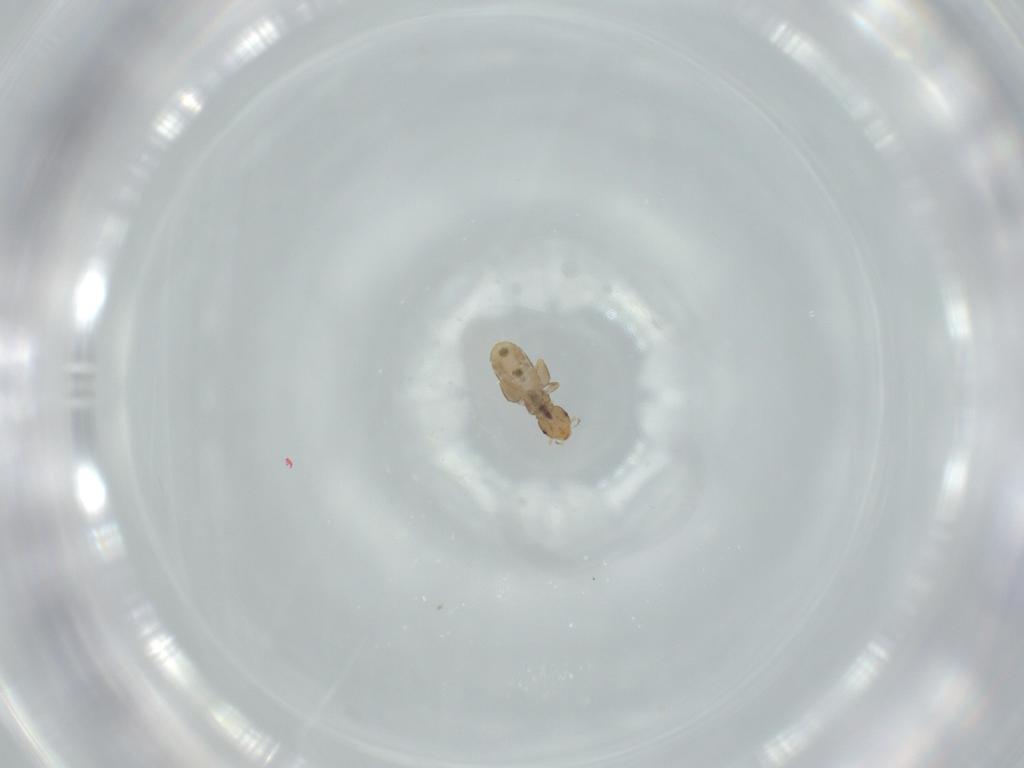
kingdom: Animalia
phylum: Arthropoda
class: Insecta
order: Psocodea
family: Liposcelididae
